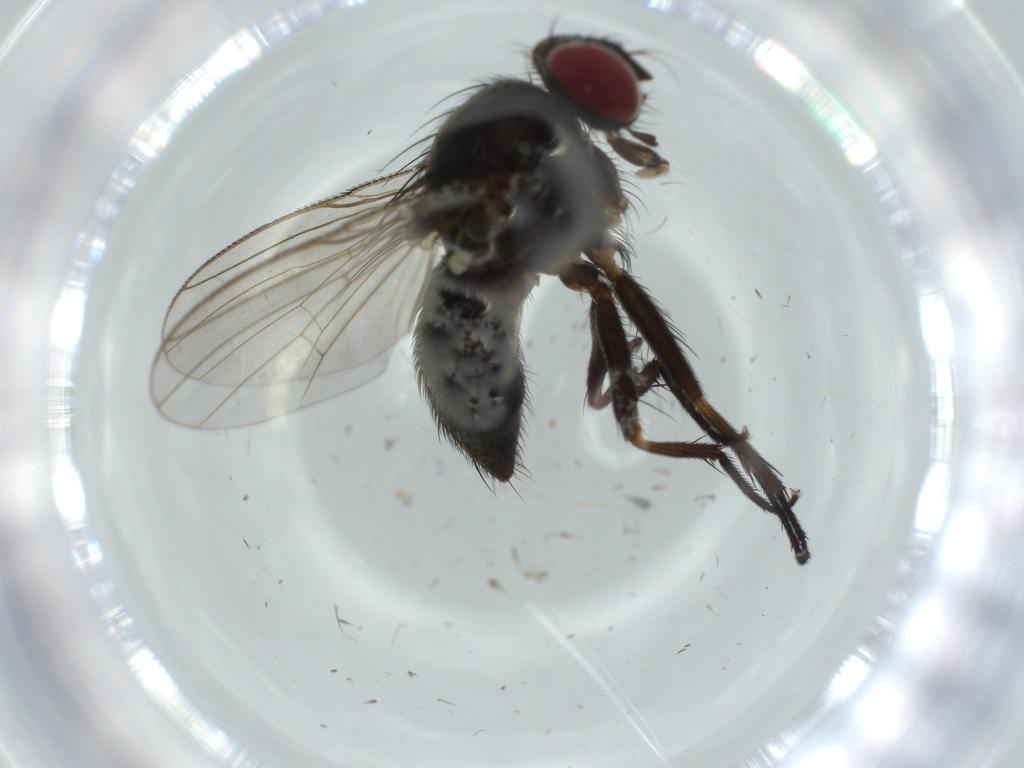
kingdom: Animalia
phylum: Arthropoda
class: Insecta
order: Diptera
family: Muscidae
